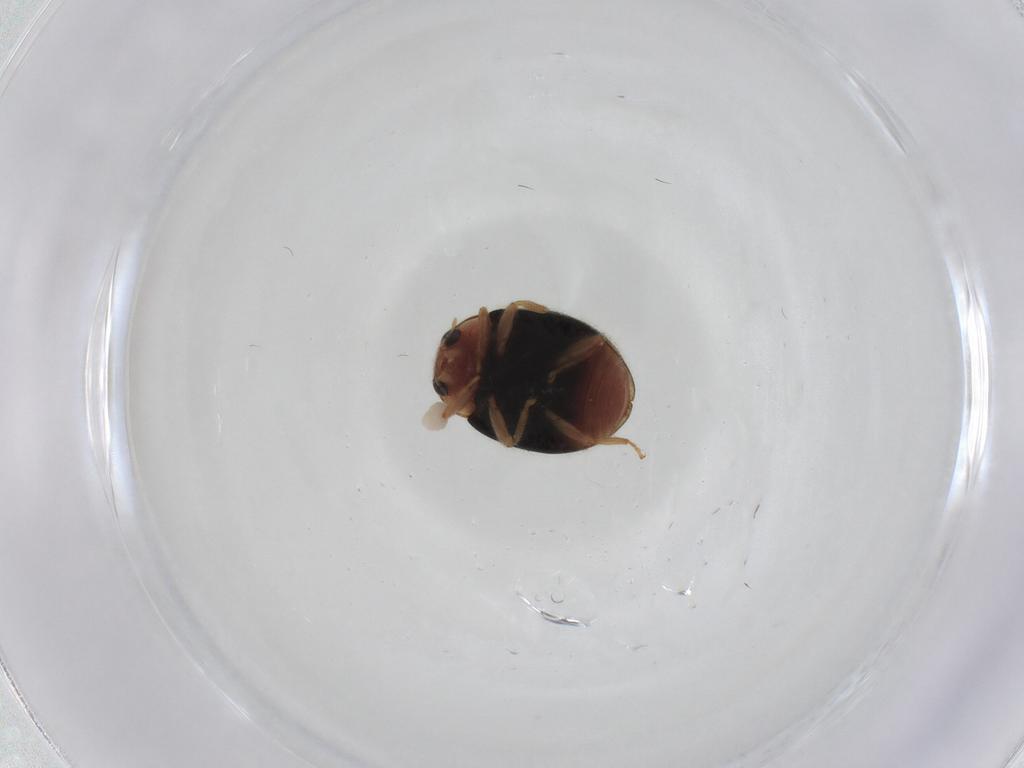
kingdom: Animalia
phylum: Arthropoda
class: Insecta
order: Coleoptera
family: Coccinellidae
